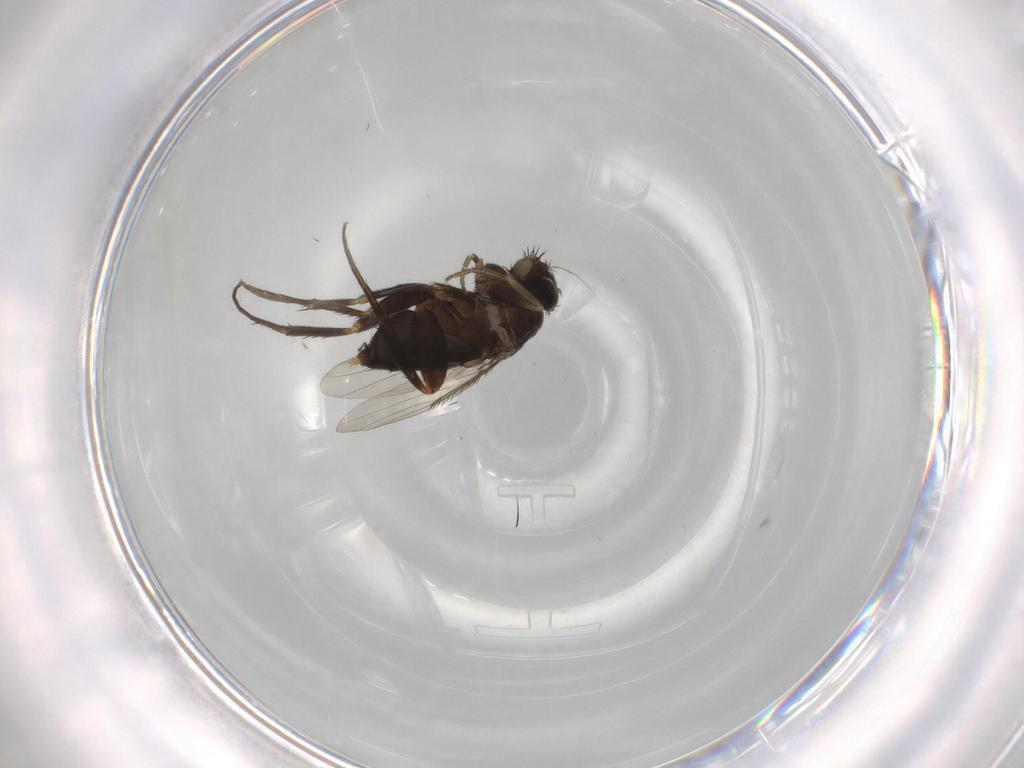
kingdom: Animalia
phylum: Arthropoda
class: Insecta
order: Diptera
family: Phoridae
